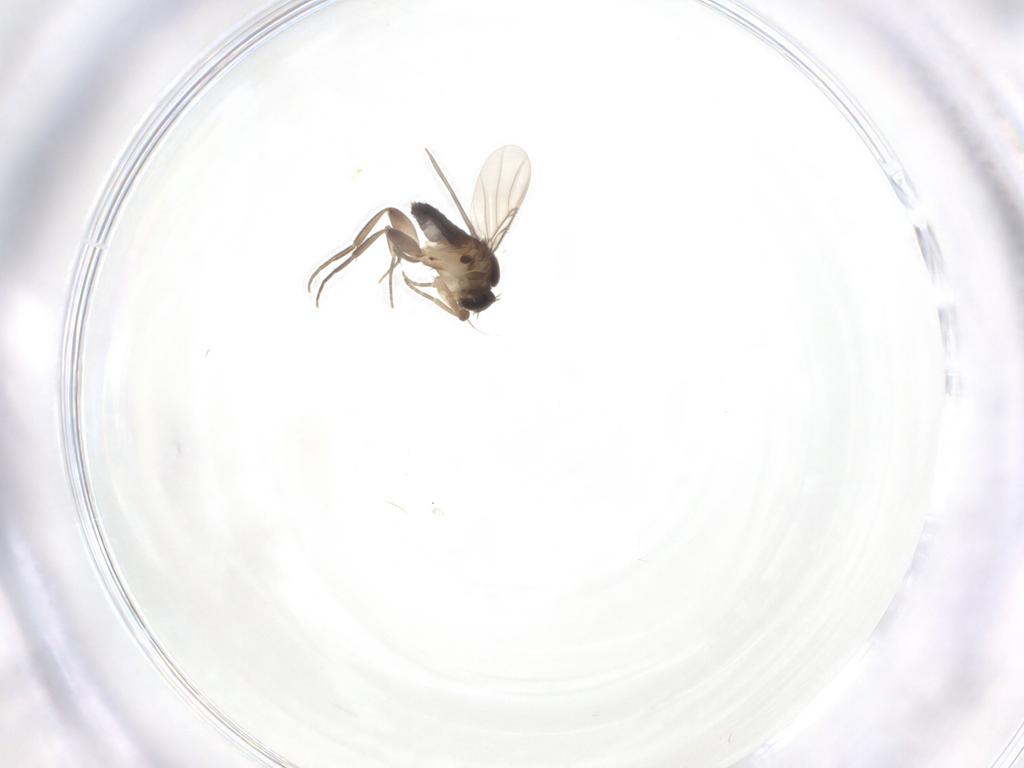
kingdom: Animalia
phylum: Arthropoda
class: Insecta
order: Diptera
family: Phoridae
